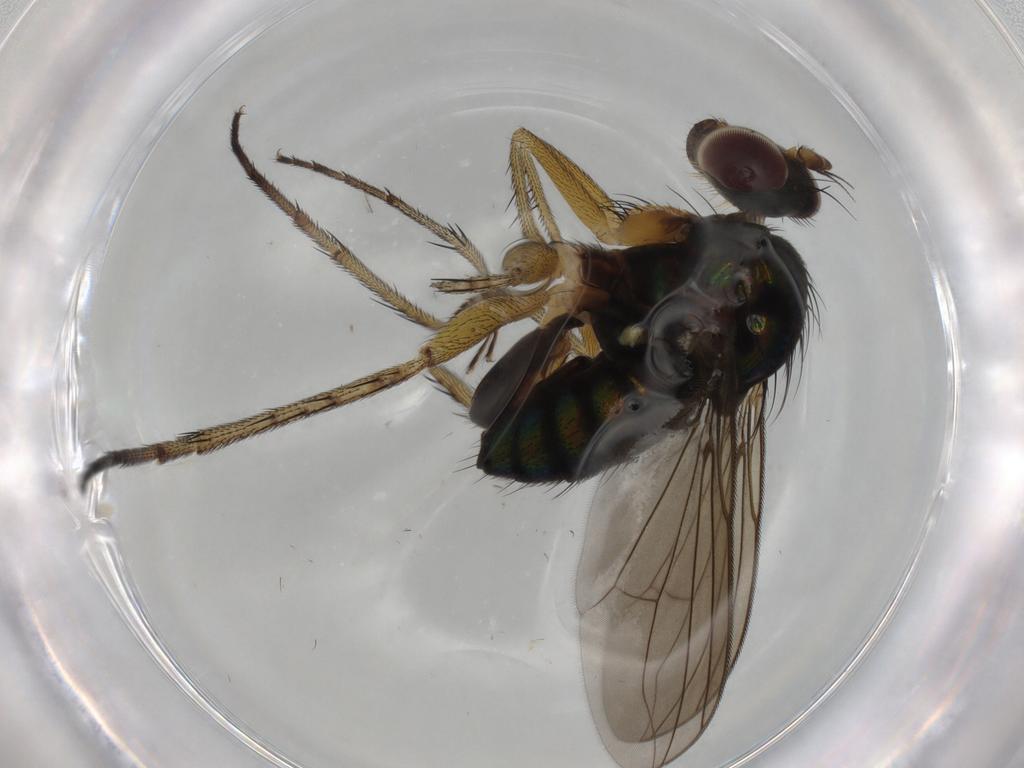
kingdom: Animalia
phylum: Arthropoda
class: Insecta
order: Diptera
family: Dolichopodidae
